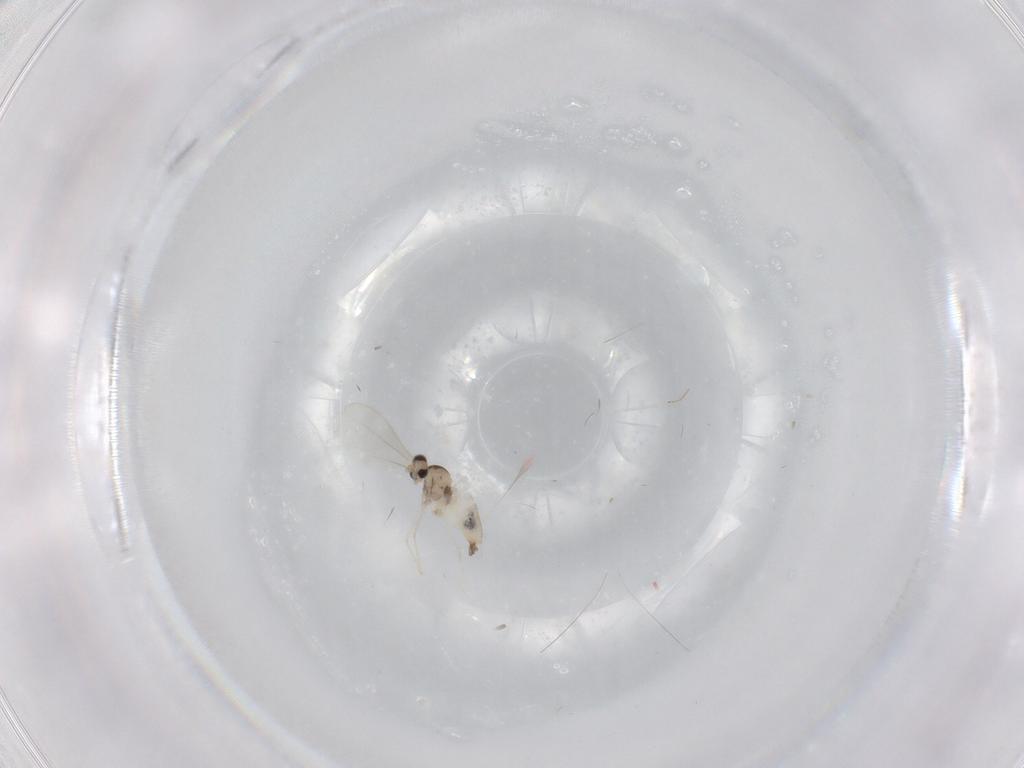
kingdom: Animalia
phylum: Arthropoda
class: Insecta
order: Diptera
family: Cecidomyiidae
